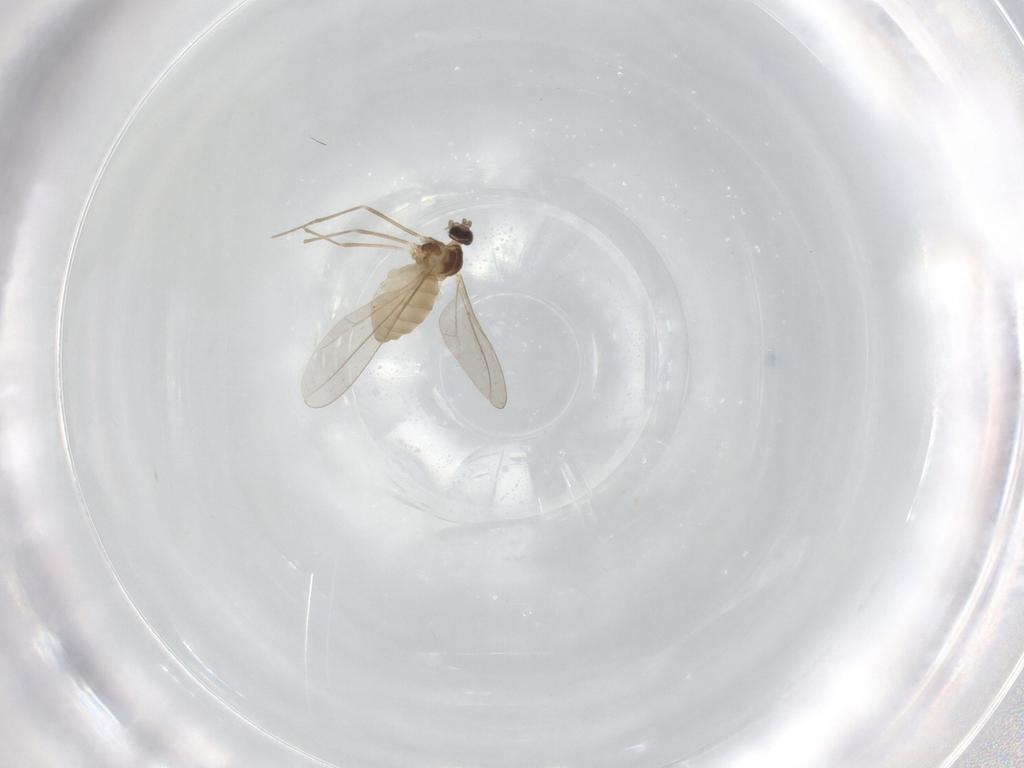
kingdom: Animalia
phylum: Arthropoda
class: Insecta
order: Diptera
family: Cecidomyiidae
